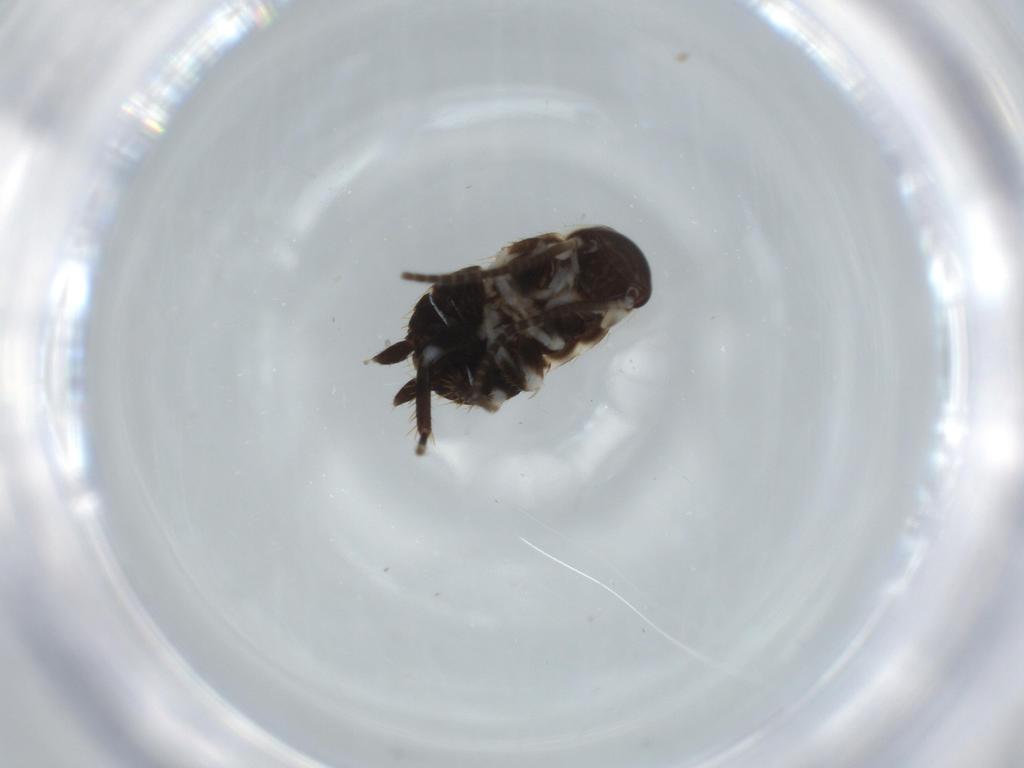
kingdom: Animalia
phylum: Arthropoda
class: Insecta
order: Blattodea
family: Ectobiidae
